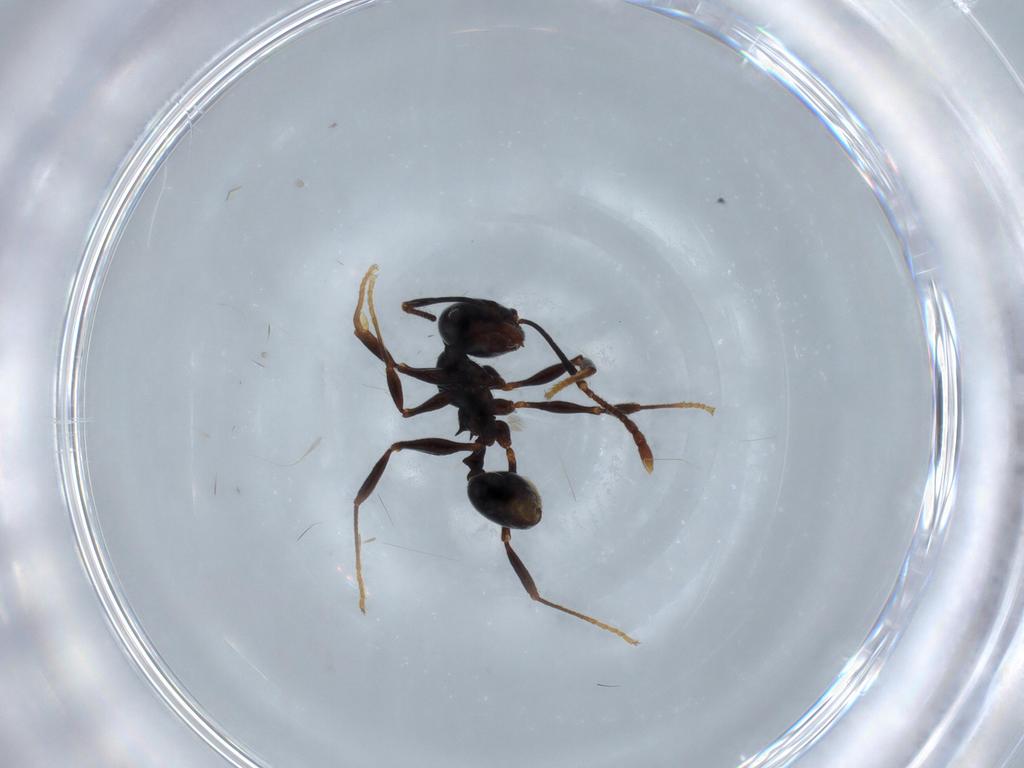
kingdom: Animalia
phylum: Arthropoda
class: Insecta
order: Hymenoptera
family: Formicidae
